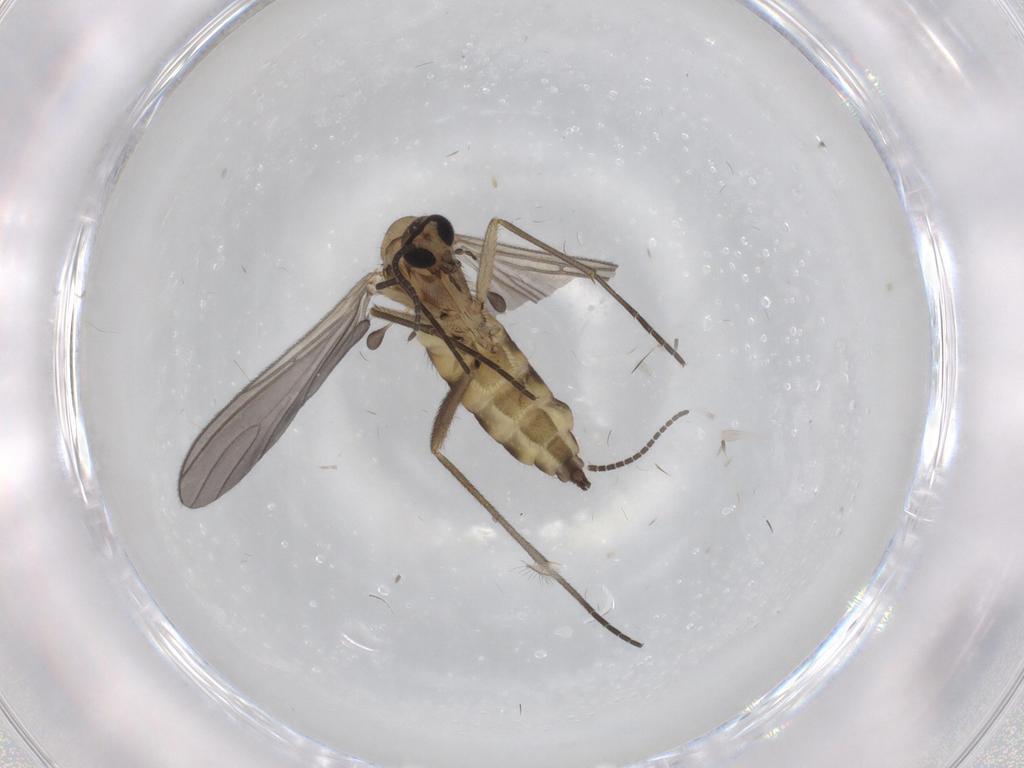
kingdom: Animalia
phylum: Arthropoda
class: Insecta
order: Diptera
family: Sciaridae
